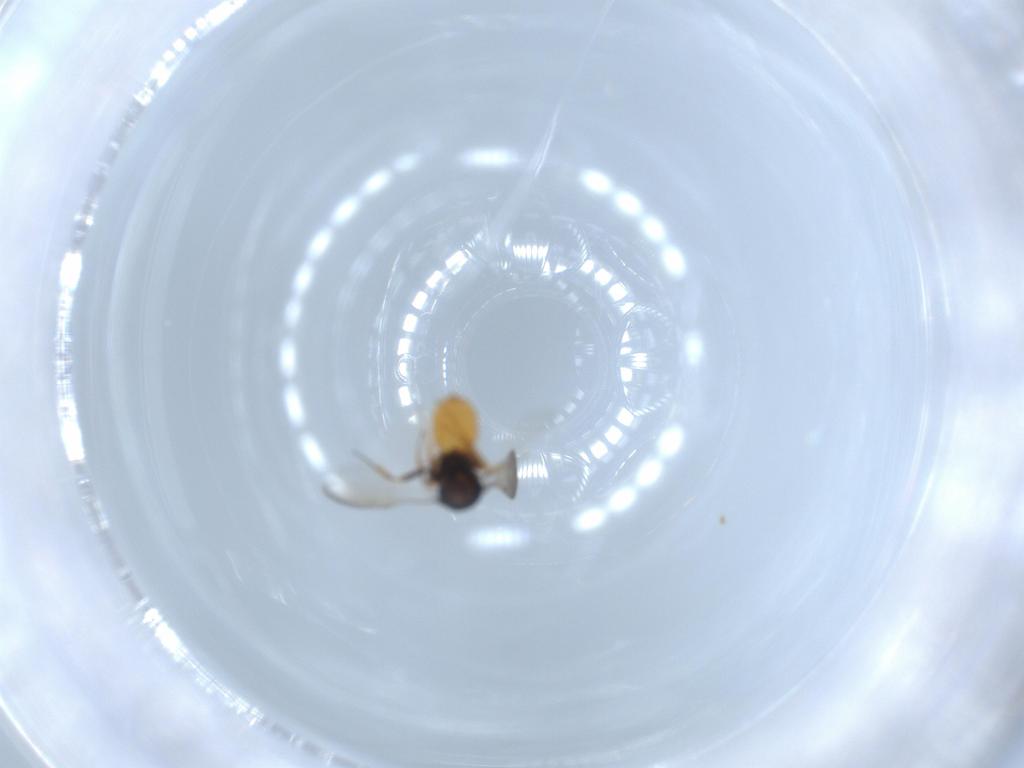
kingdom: Animalia
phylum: Arthropoda
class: Insecta
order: Hymenoptera
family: Scelionidae
